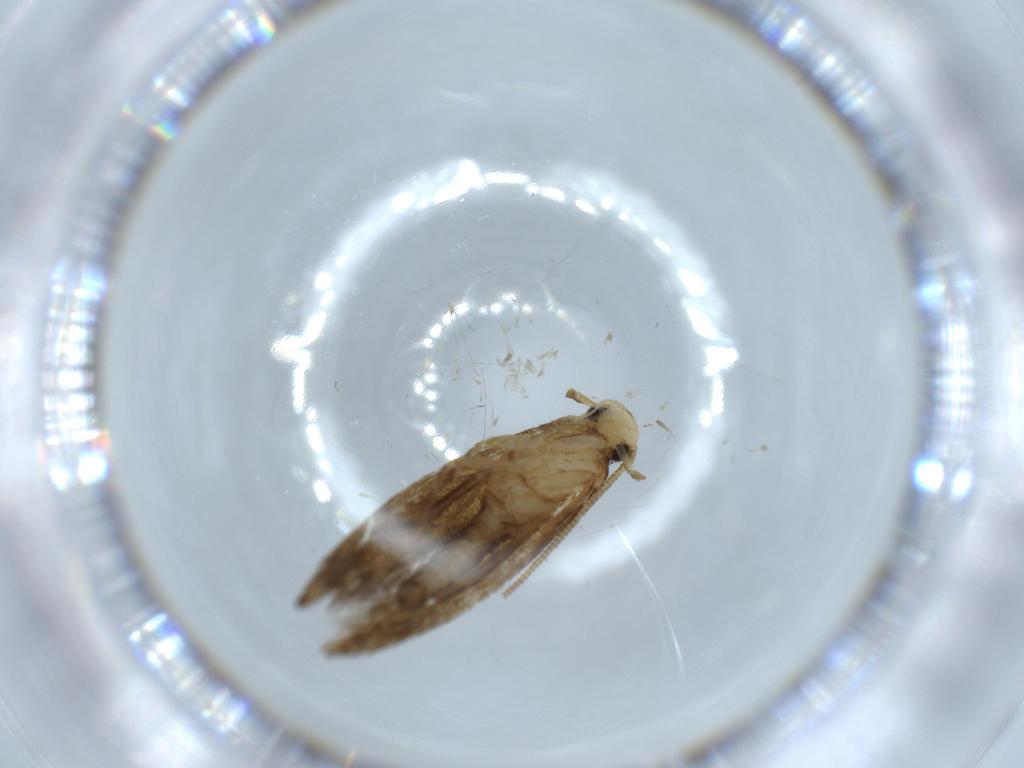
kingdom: Animalia
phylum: Arthropoda
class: Insecta
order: Lepidoptera
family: Tineidae
